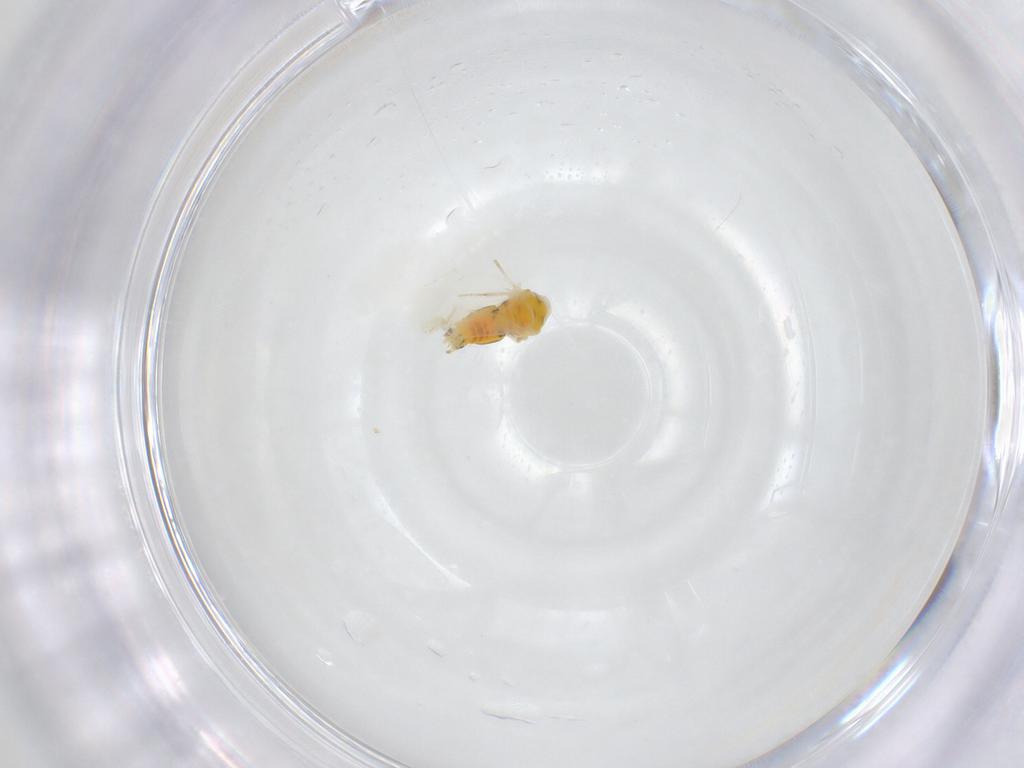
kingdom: Animalia
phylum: Arthropoda
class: Insecta
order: Hemiptera
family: Aleyrodidae
